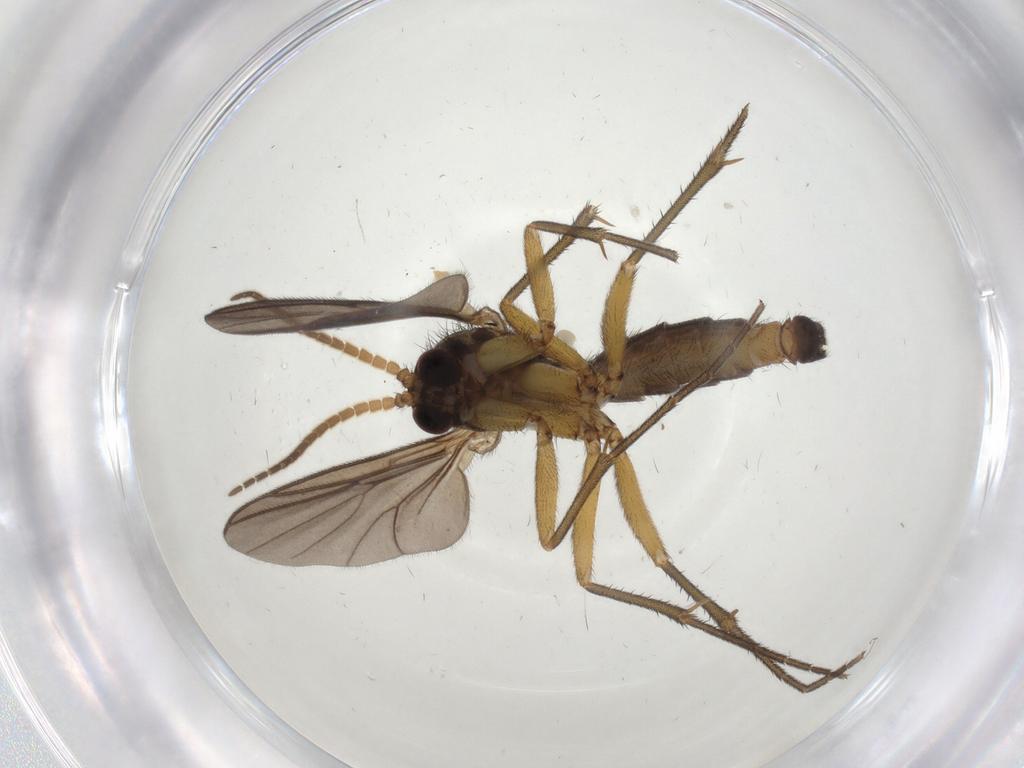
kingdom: Animalia
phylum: Arthropoda
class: Insecta
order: Diptera
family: Mycetophilidae
